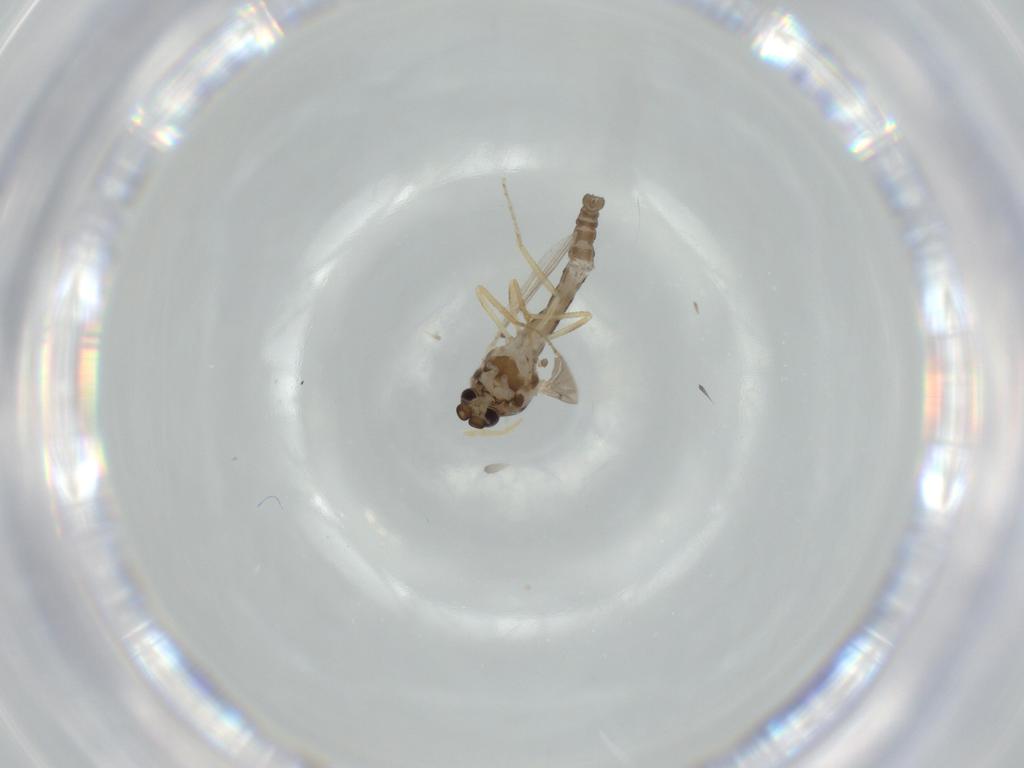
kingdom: Animalia
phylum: Arthropoda
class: Insecta
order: Diptera
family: Ceratopogonidae
